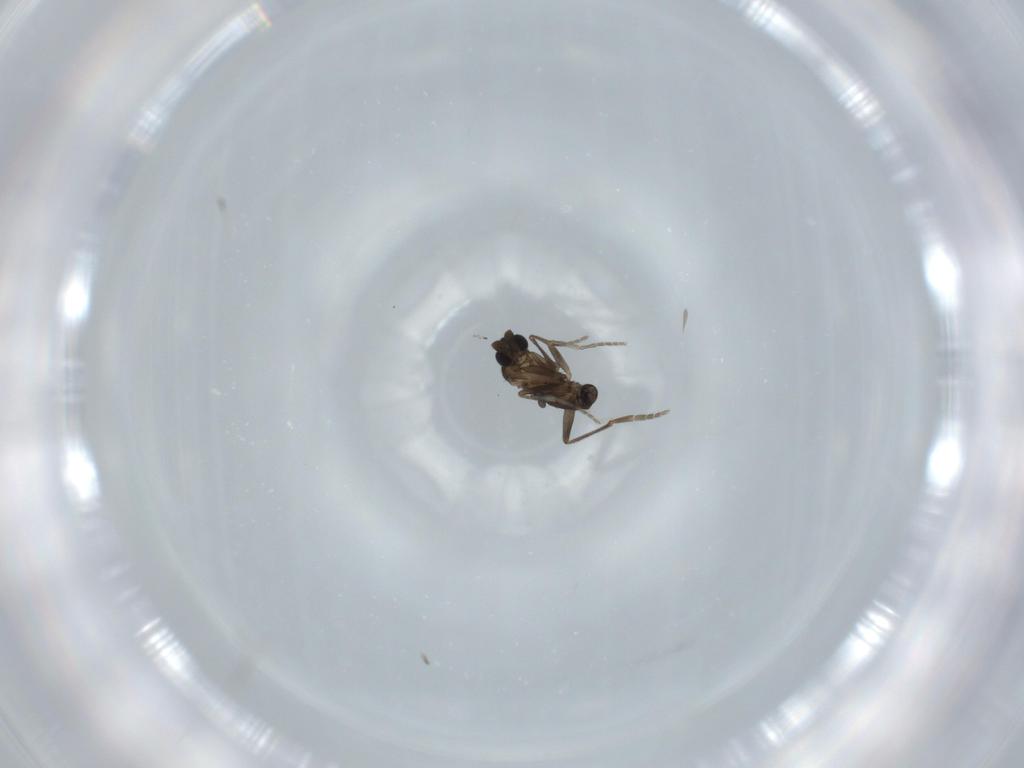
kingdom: Animalia
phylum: Arthropoda
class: Insecta
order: Diptera
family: Phoridae
